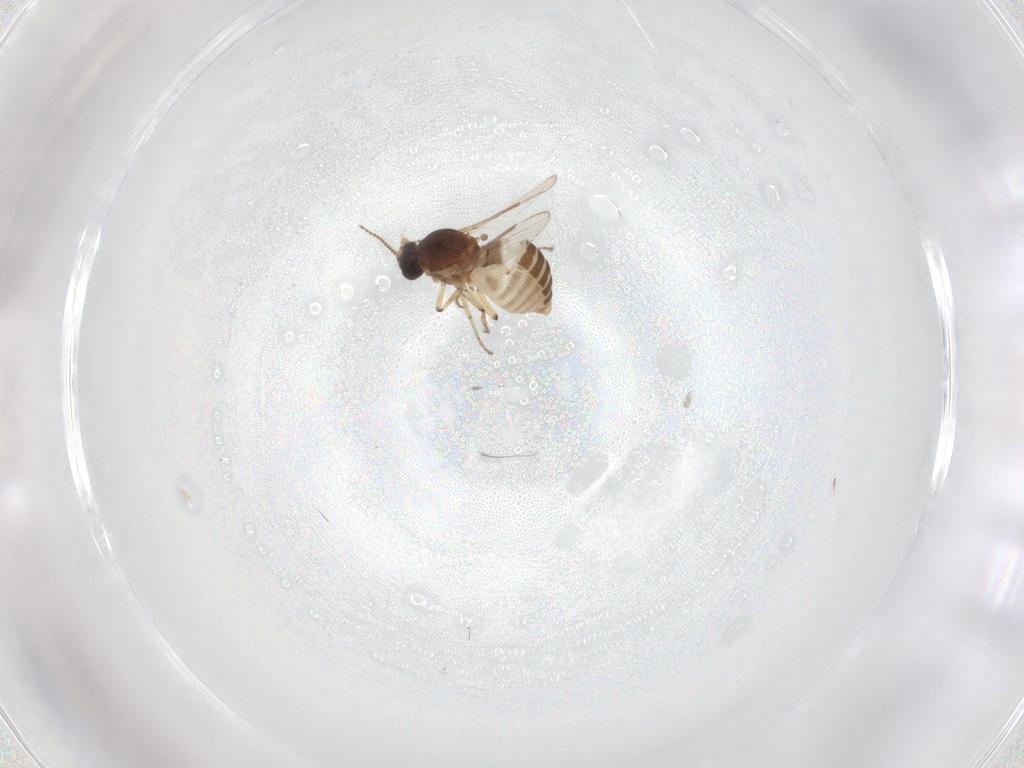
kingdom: Animalia
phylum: Arthropoda
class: Insecta
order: Diptera
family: Ceratopogonidae
